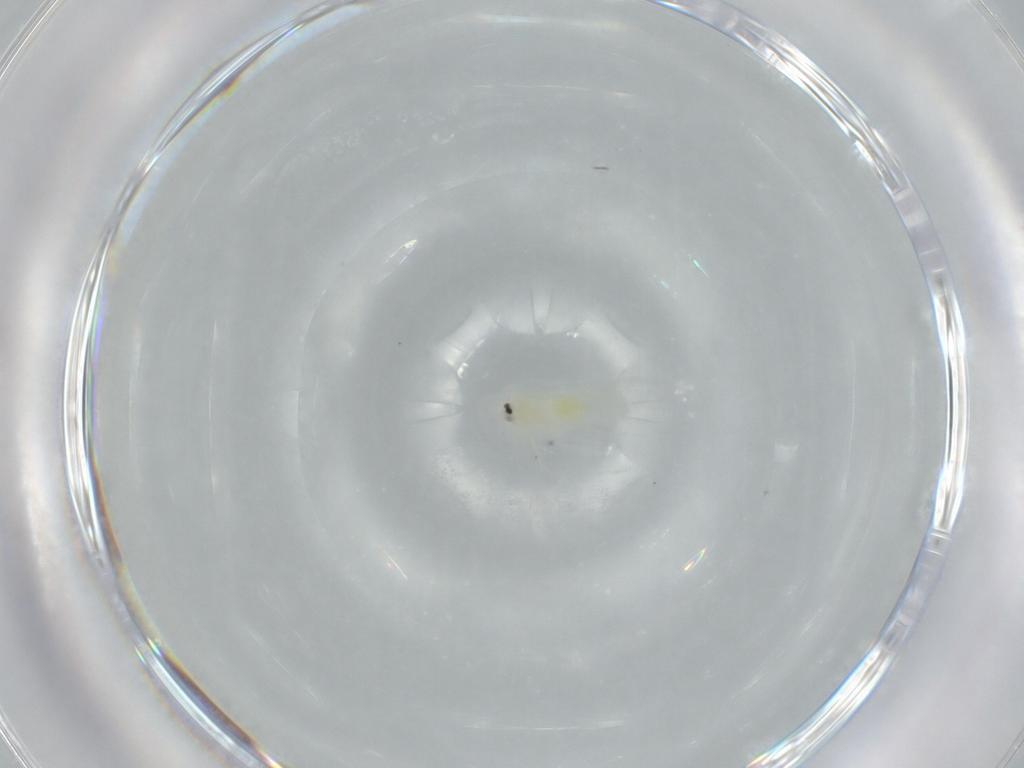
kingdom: Animalia
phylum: Arthropoda
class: Insecta
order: Hemiptera
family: Aleyrodidae
